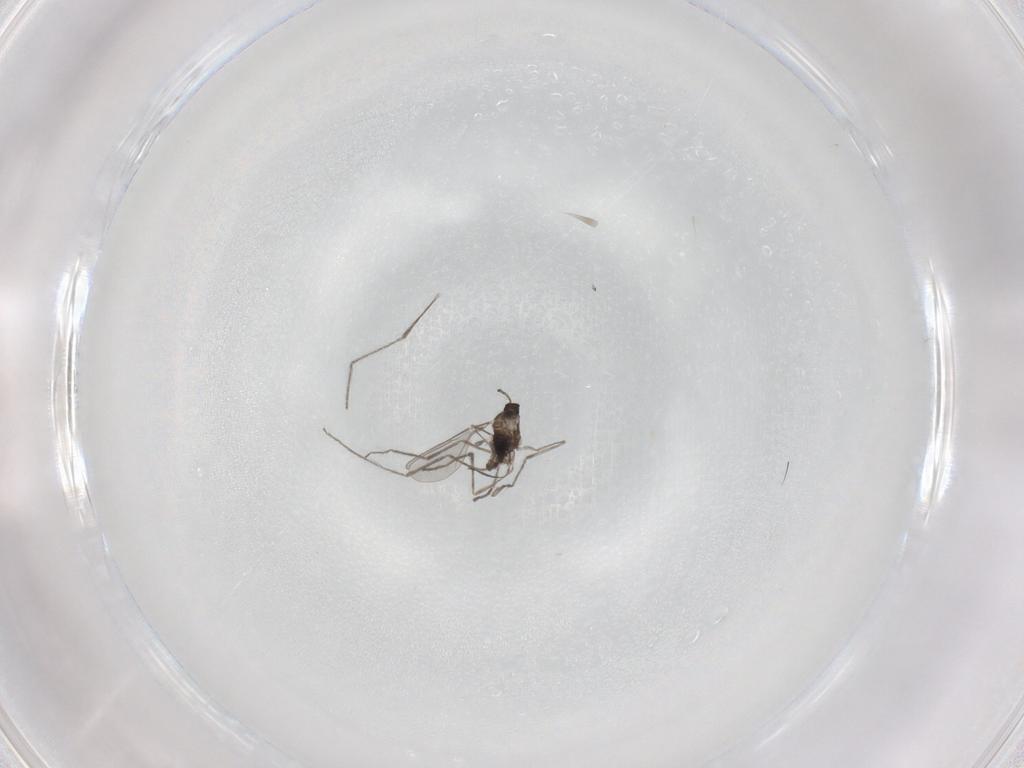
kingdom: Animalia
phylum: Arthropoda
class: Insecta
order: Diptera
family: Cecidomyiidae
